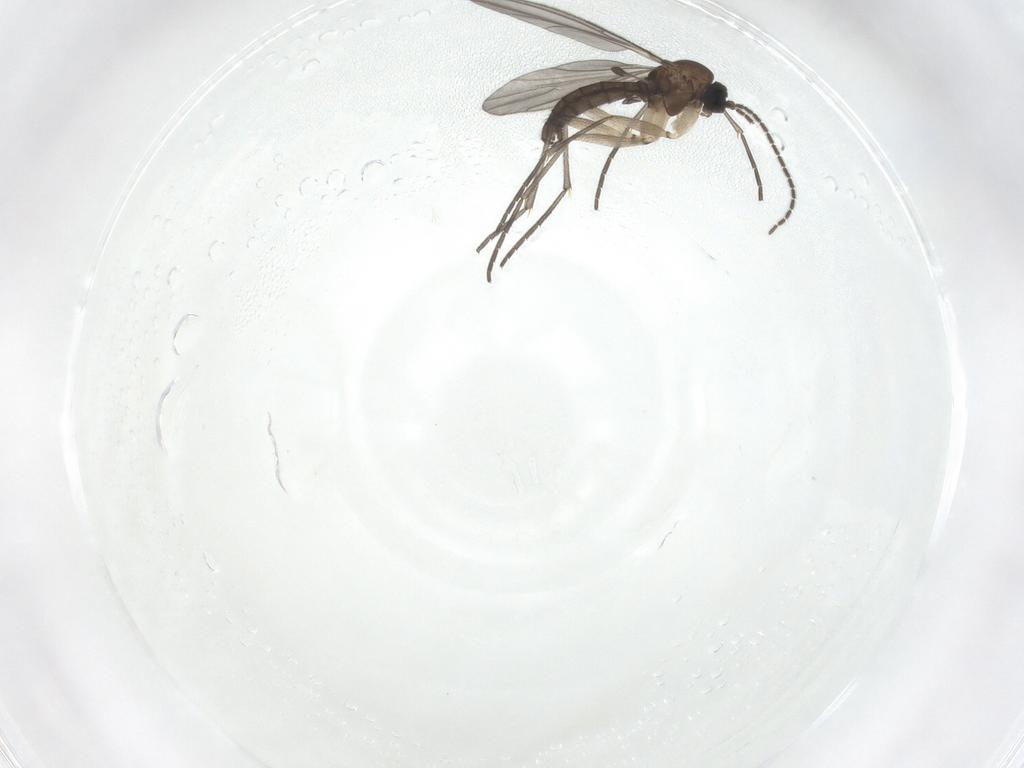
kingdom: Animalia
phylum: Arthropoda
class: Insecta
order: Diptera
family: Sciaridae
